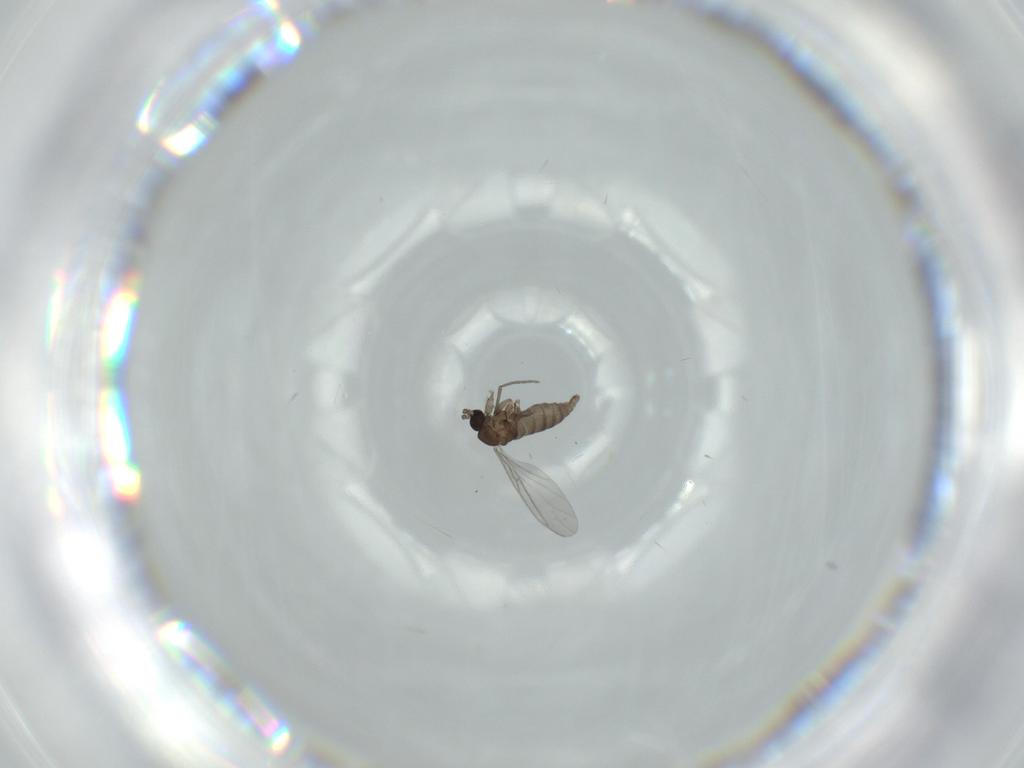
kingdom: Animalia
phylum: Arthropoda
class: Insecta
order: Diptera
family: Sciaridae
